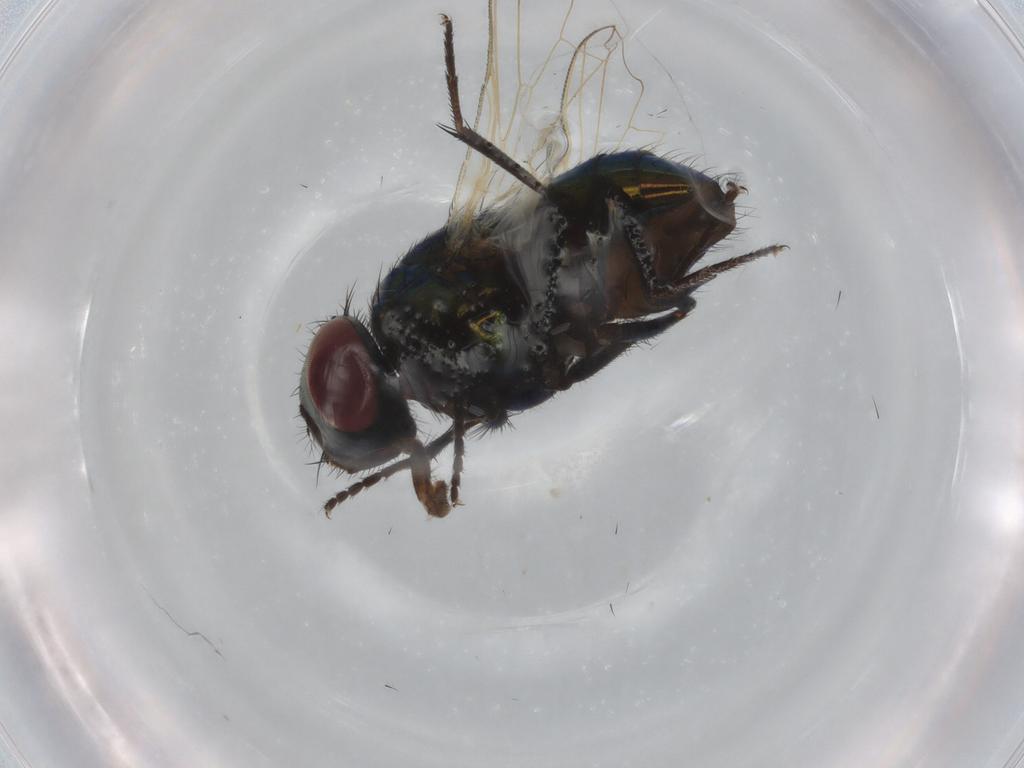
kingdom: Animalia
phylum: Arthropoda
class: Insecta
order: Diptera
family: Muscidae
